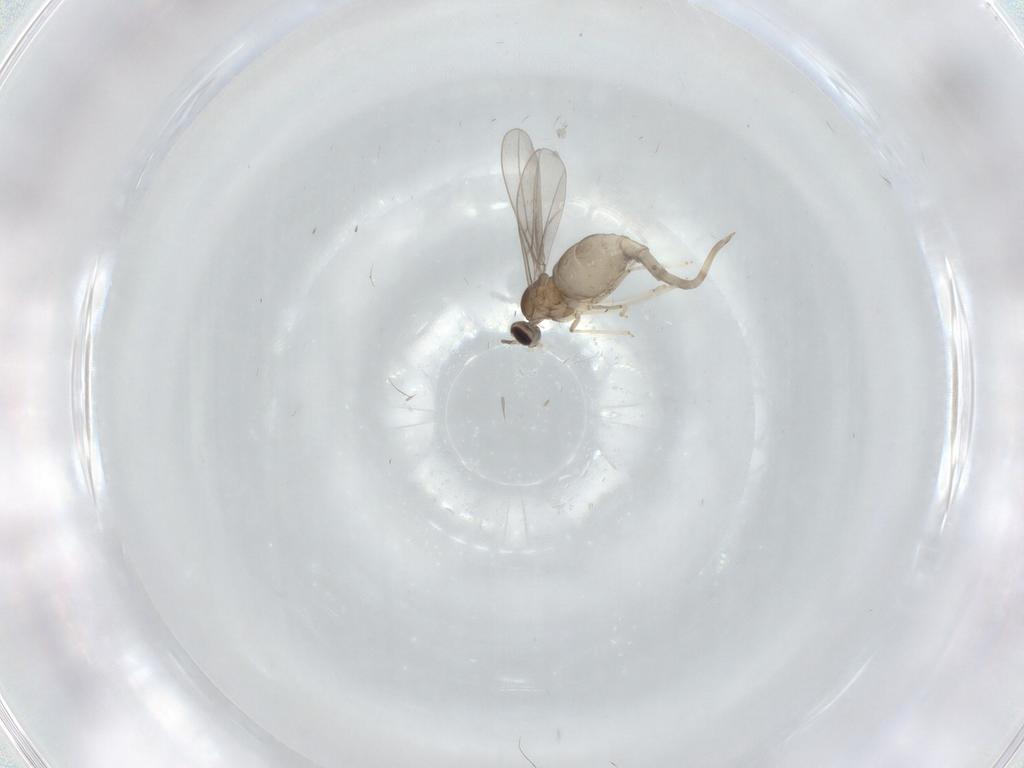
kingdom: Animalia
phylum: Arthropoda
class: Insecta
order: Diptera
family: Cecidomyiidae
